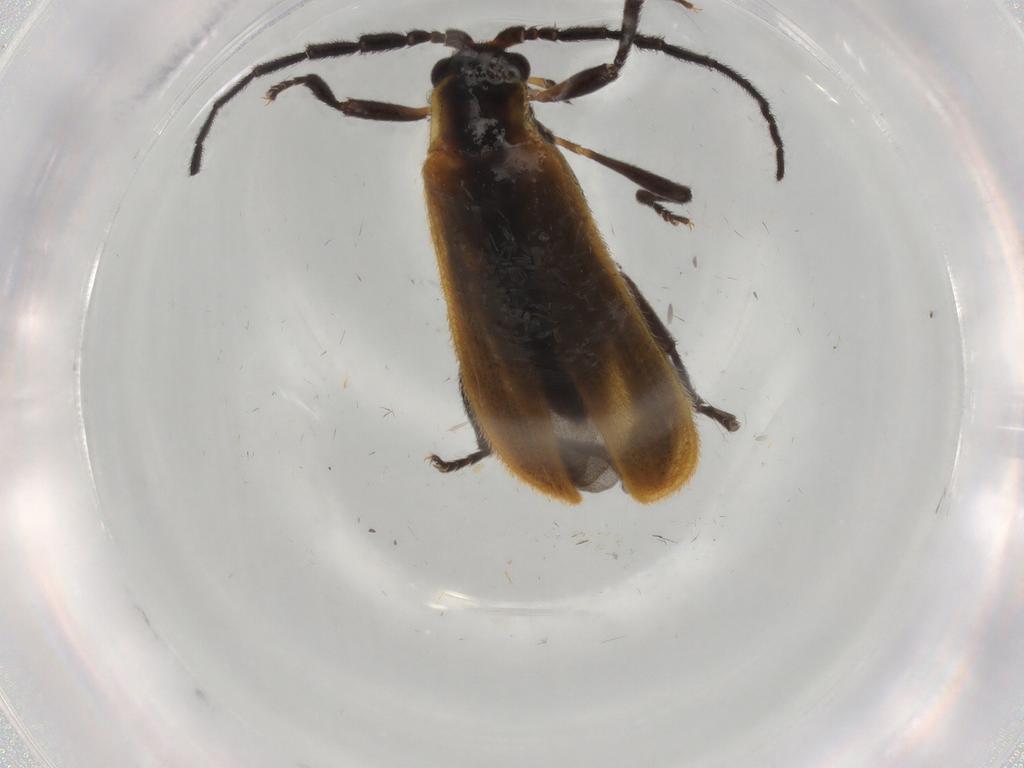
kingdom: Animalia
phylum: Arthropoda
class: Insecta
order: Coleoptera
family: Lycidae
